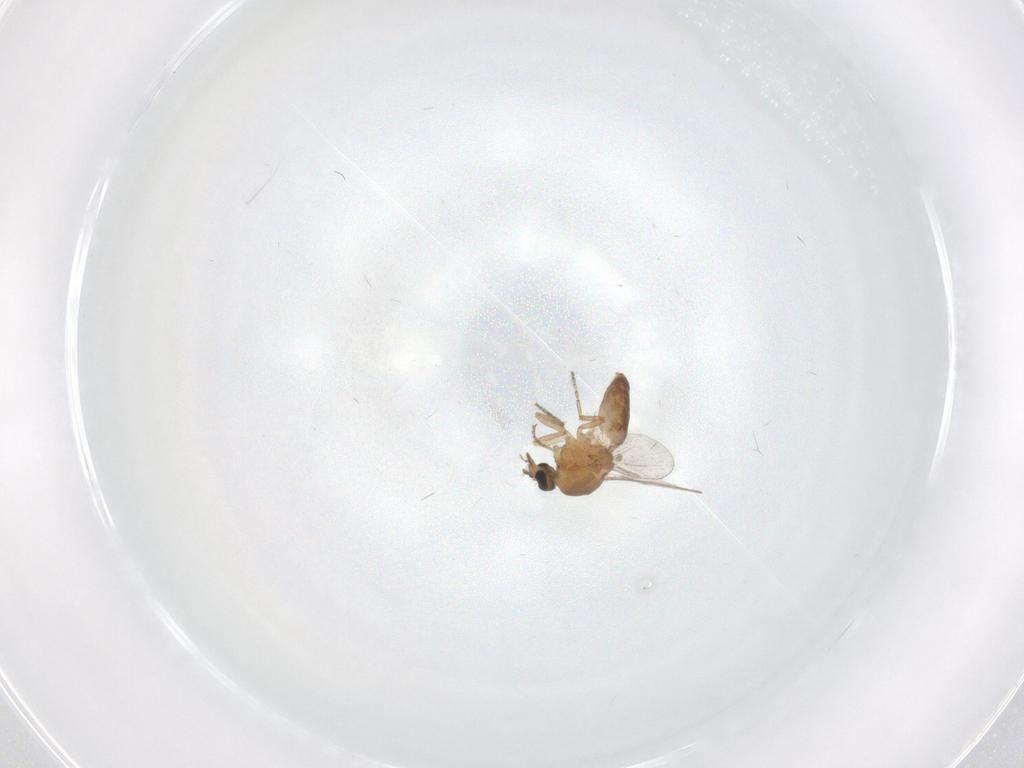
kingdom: Animalia
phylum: Arthropoda
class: Insecta
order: Diptera
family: Ceratopogonidae
